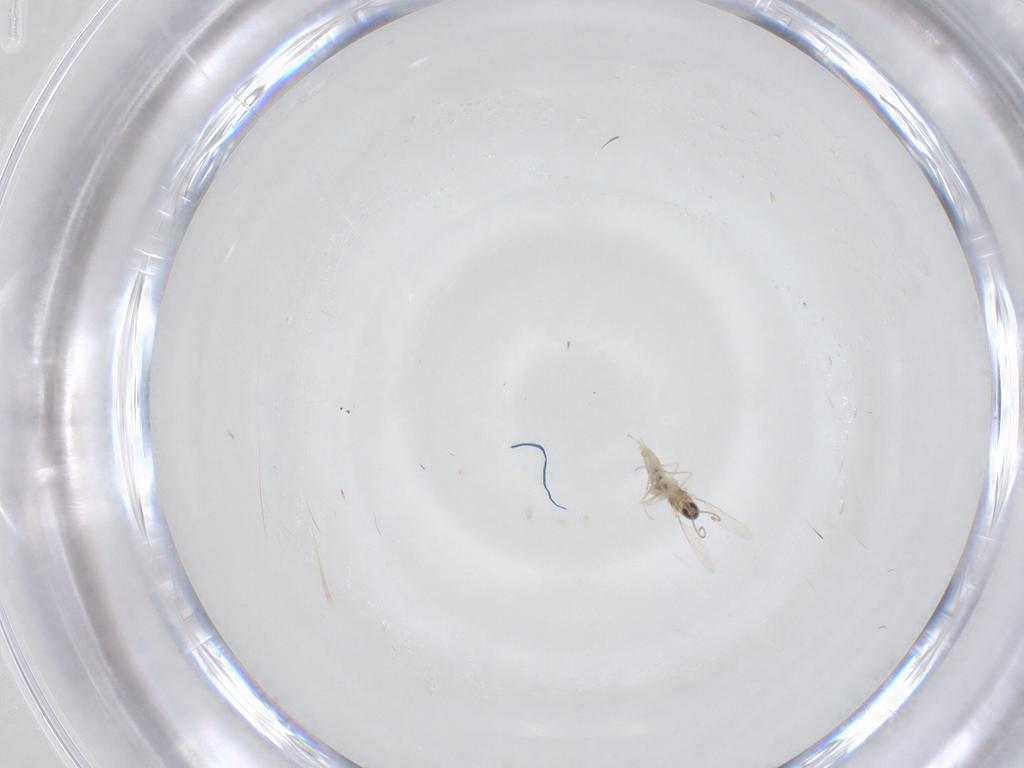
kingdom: Animalia
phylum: Arthropoda
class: Insecta
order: Diptera
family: Cecidomyiidae
